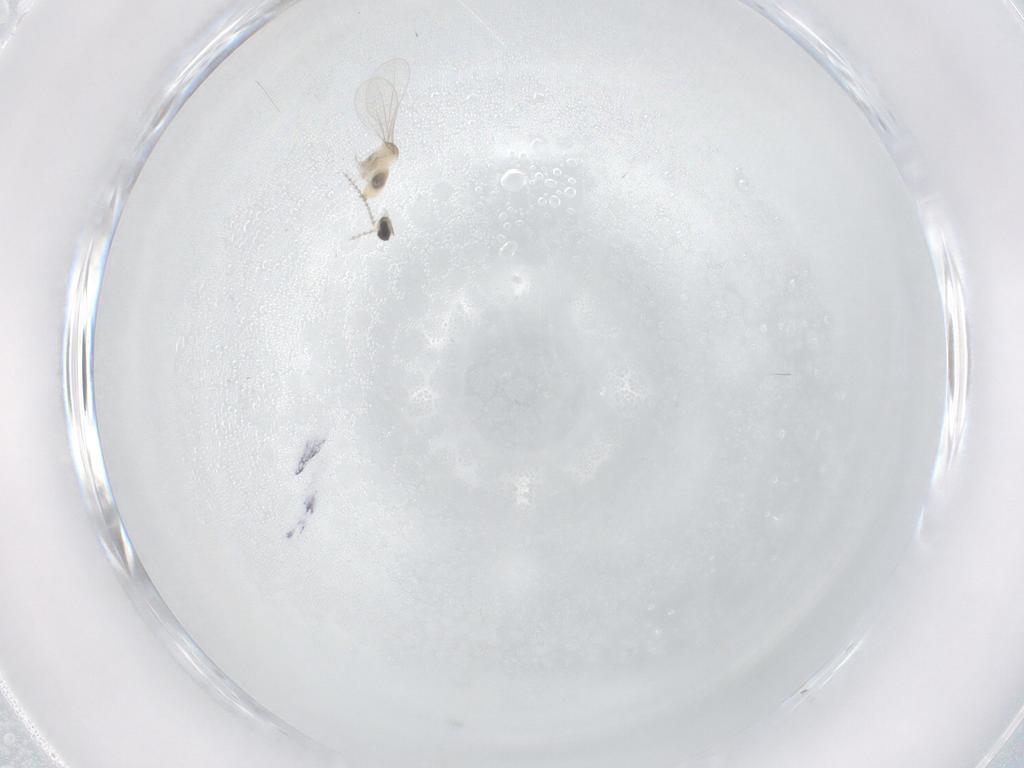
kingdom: Animalia
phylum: Arthropoda
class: Insecta
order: Diptera
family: Cecidomyiidae
